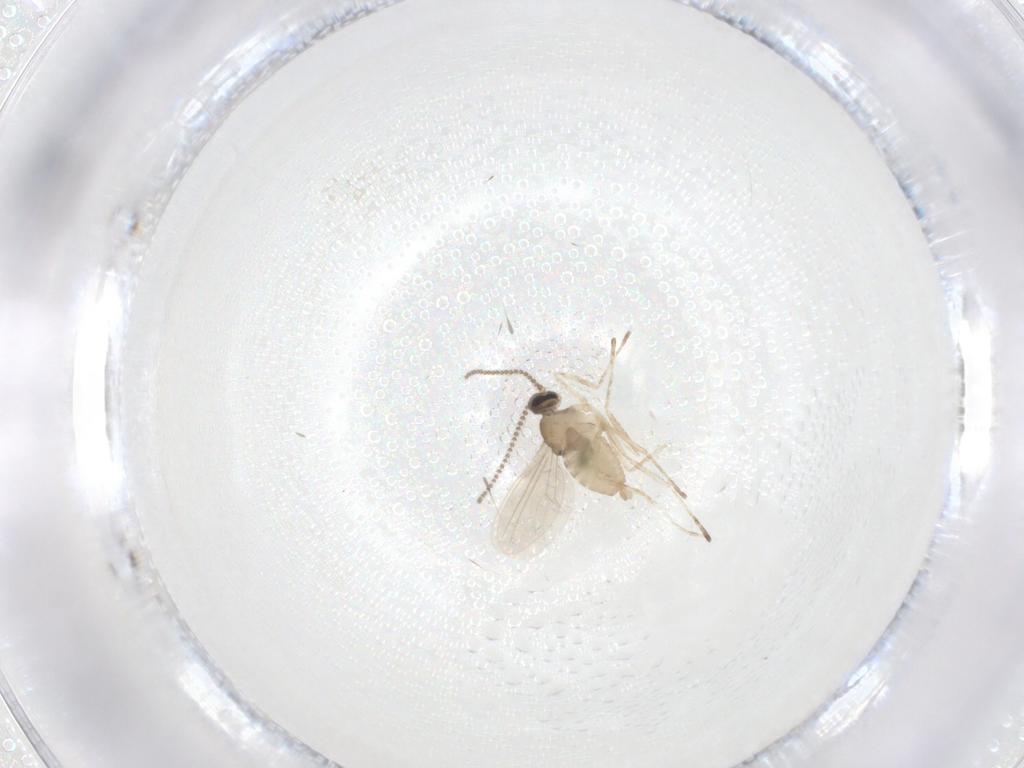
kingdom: Animalia
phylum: Arthropoda
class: Insecta
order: Diptera
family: Cecidomyiidae
